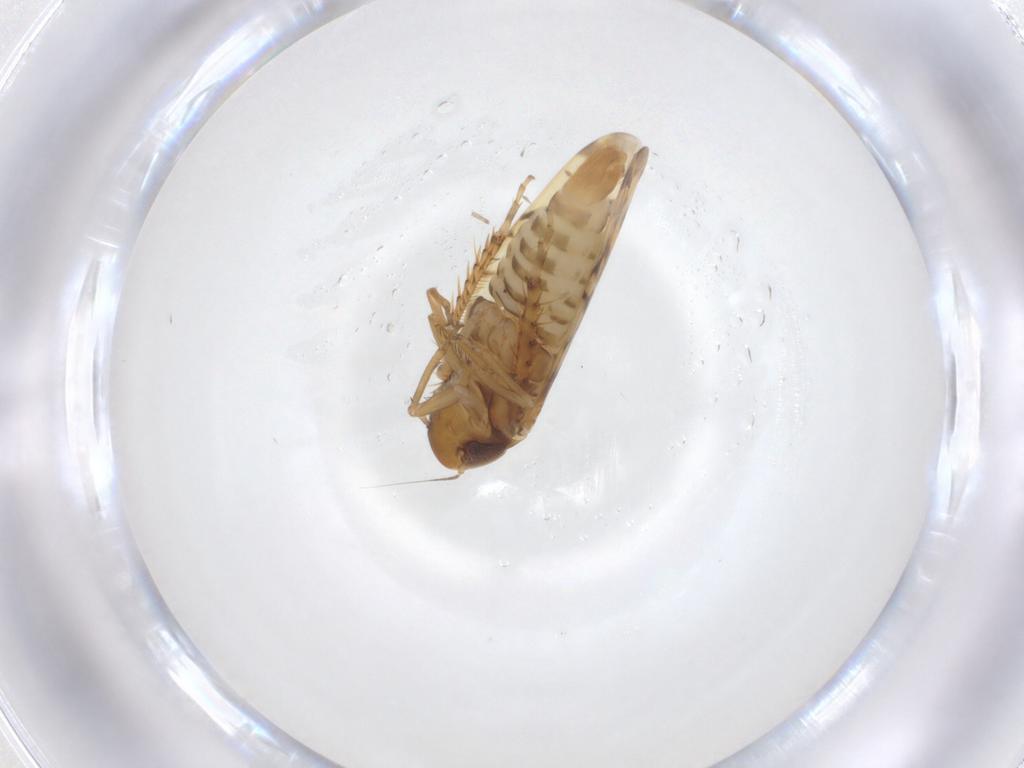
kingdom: Animalia
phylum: Arthropoda
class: Insecta
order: Hemiptera
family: Cicadellidae
